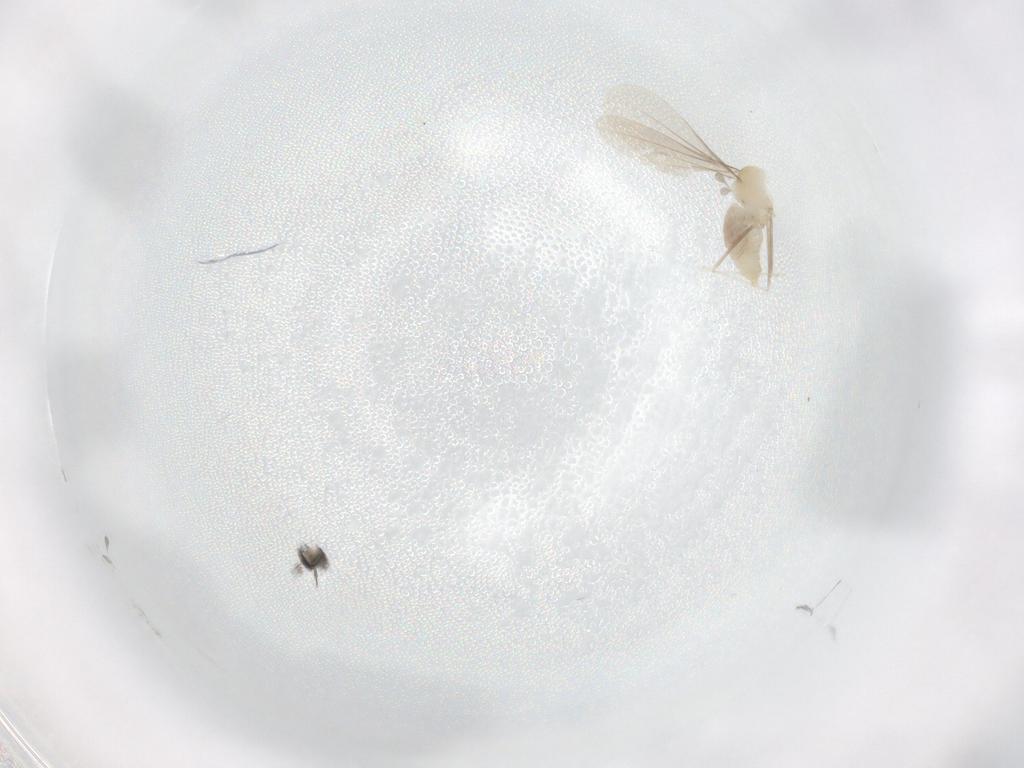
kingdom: Animalia
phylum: Arthropoda
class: Insecta
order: Diptera
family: Cecidomyiidae
